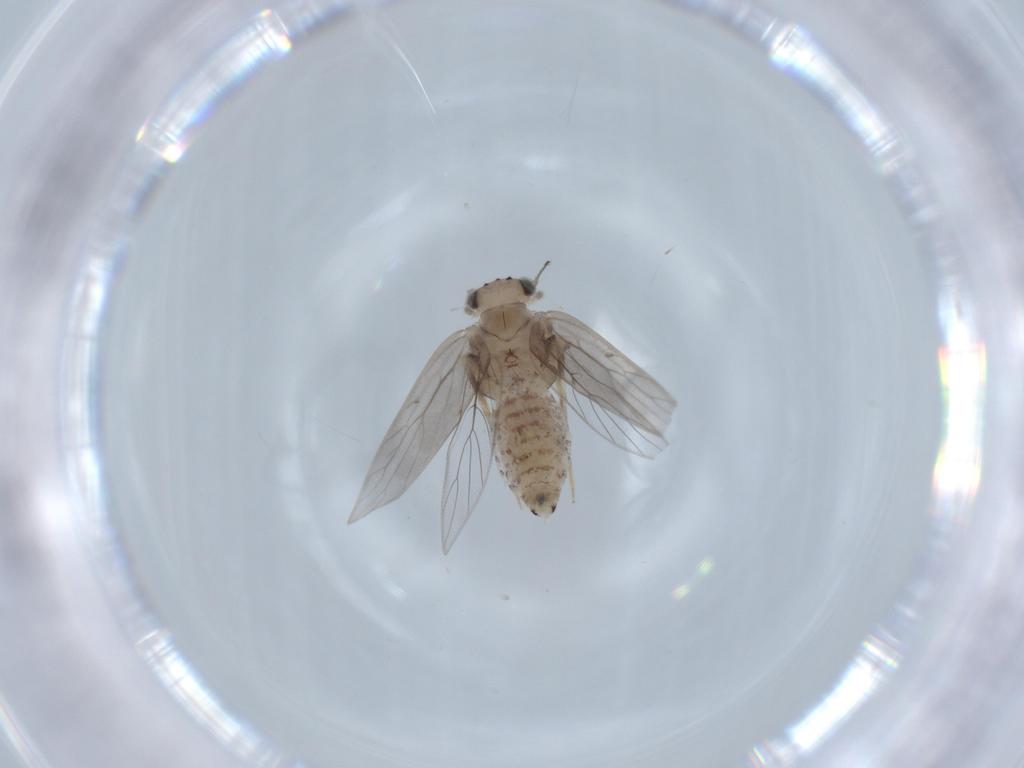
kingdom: Animalia
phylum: Arthropoda
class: Insecta
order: Psocodea
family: Lepidopsocidae
